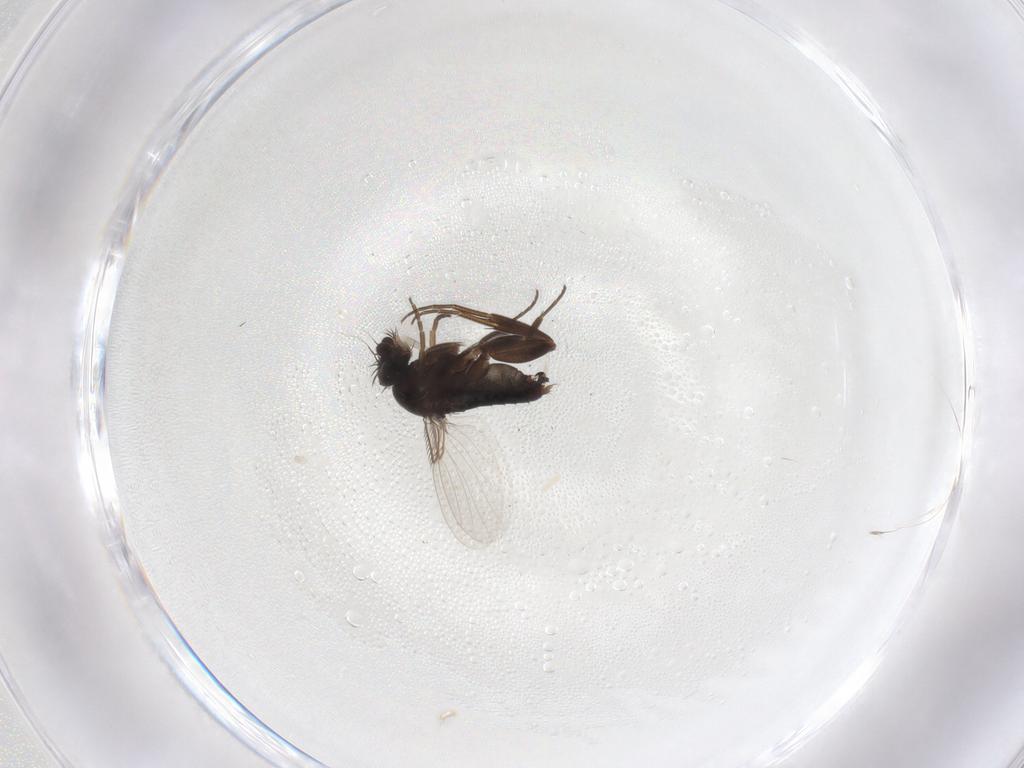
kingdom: Animalia
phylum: Arthropoda
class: Insecta
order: Diptera
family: Phoridae
